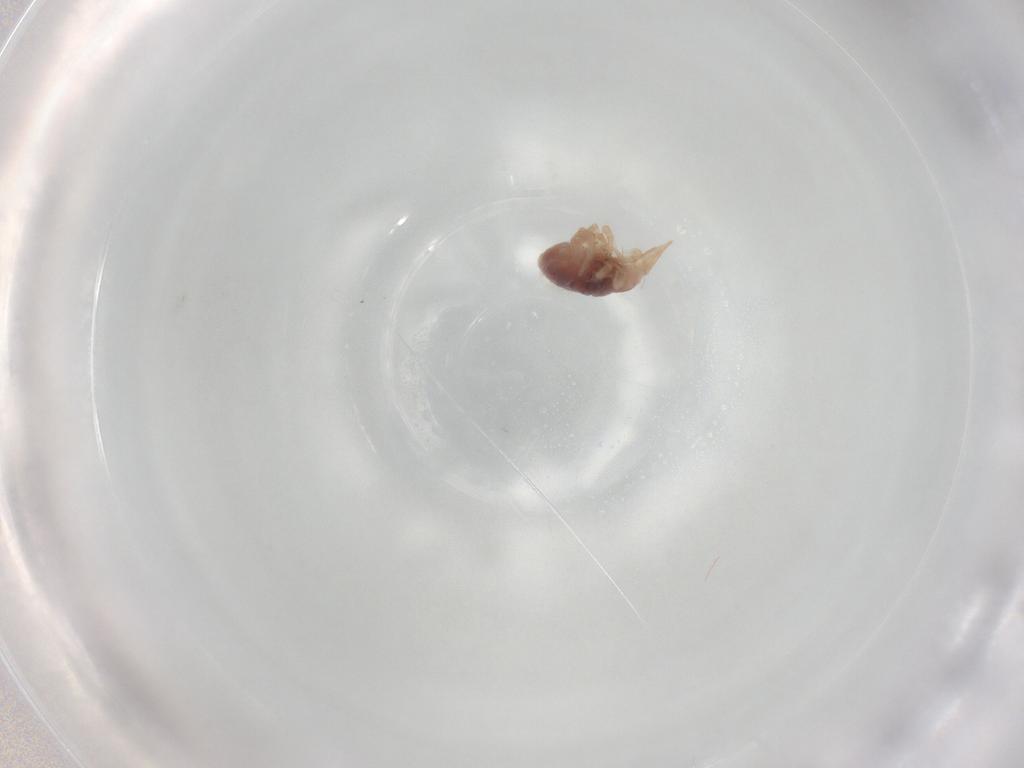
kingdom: Animalia
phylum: Arthropoda
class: Arachnida
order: Trombidiformes
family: Bdellidae
